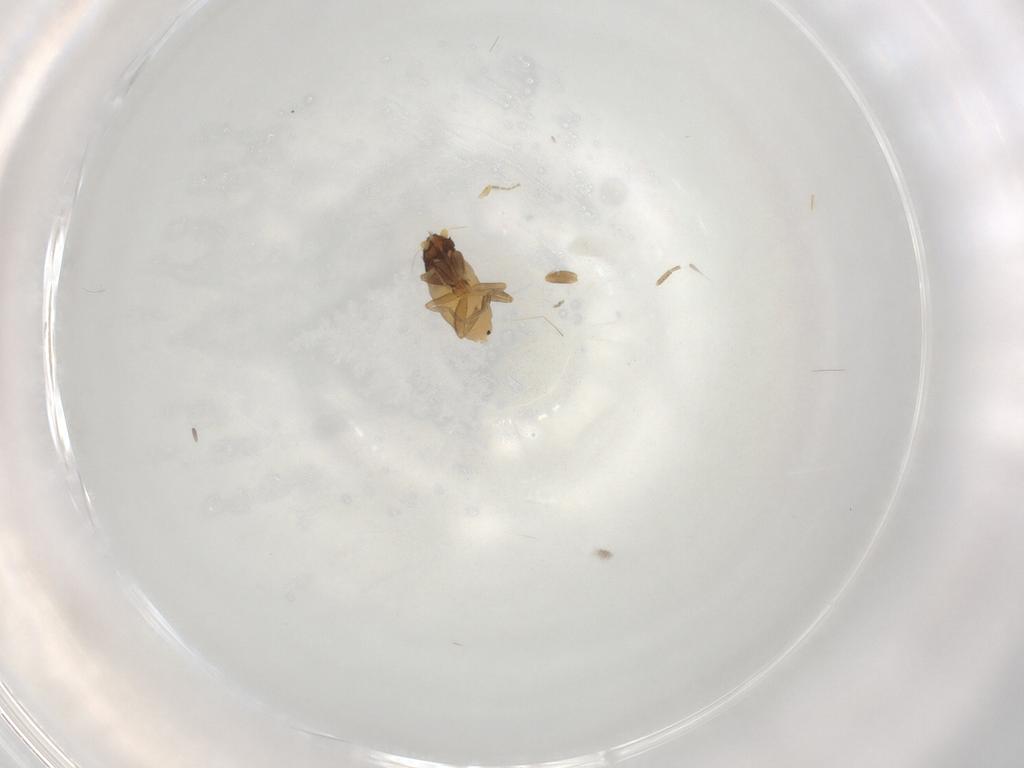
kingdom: Animalia
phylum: Arthropoda
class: Insecta
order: Diptera
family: Phoridae
